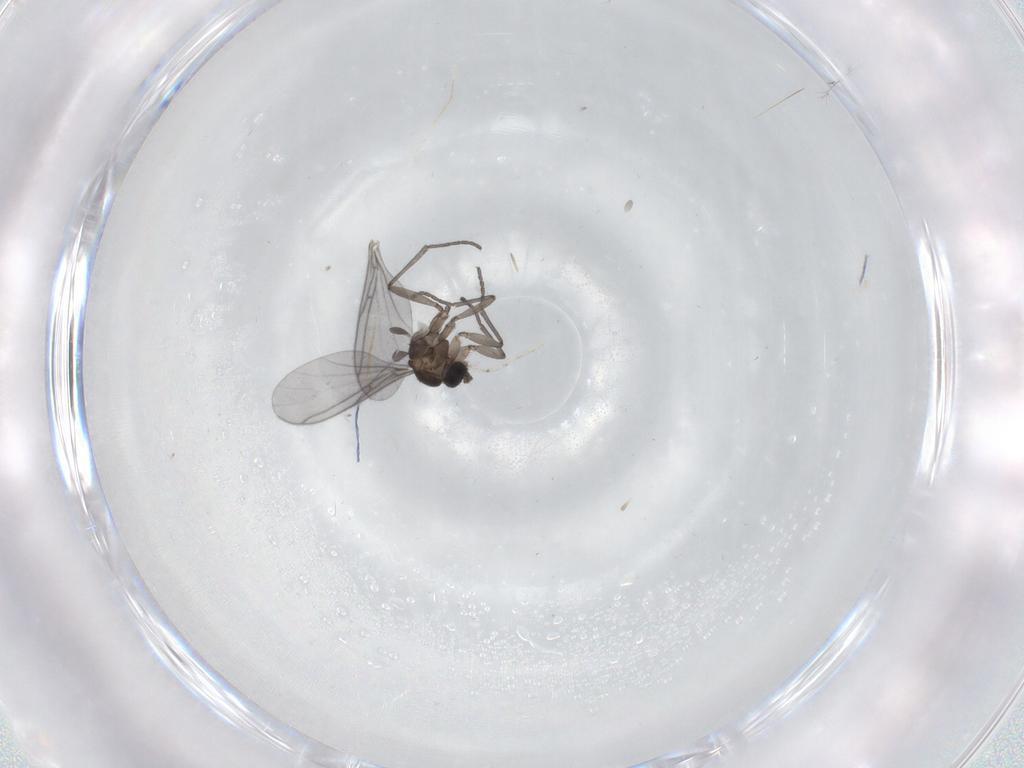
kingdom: Animalia
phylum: Arthropoda
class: Insecta
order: Diptera
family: Cecidomyiidae
